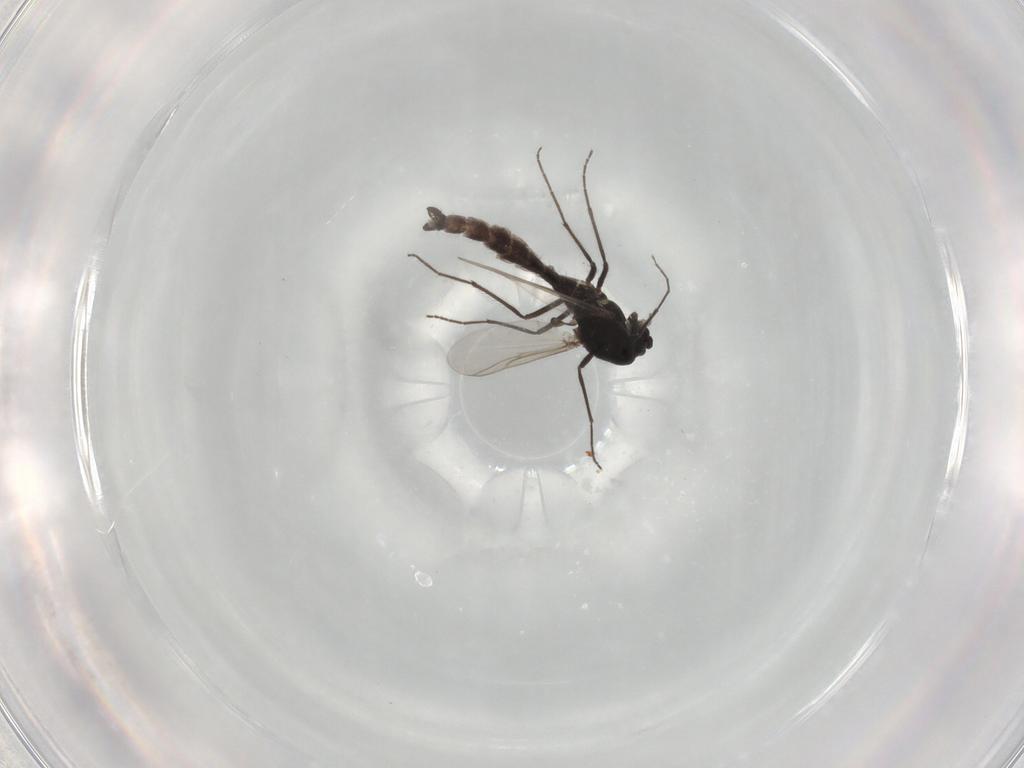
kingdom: Animalia
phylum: Arthropoda
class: Insecta
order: Diptera
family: Chironomidae
